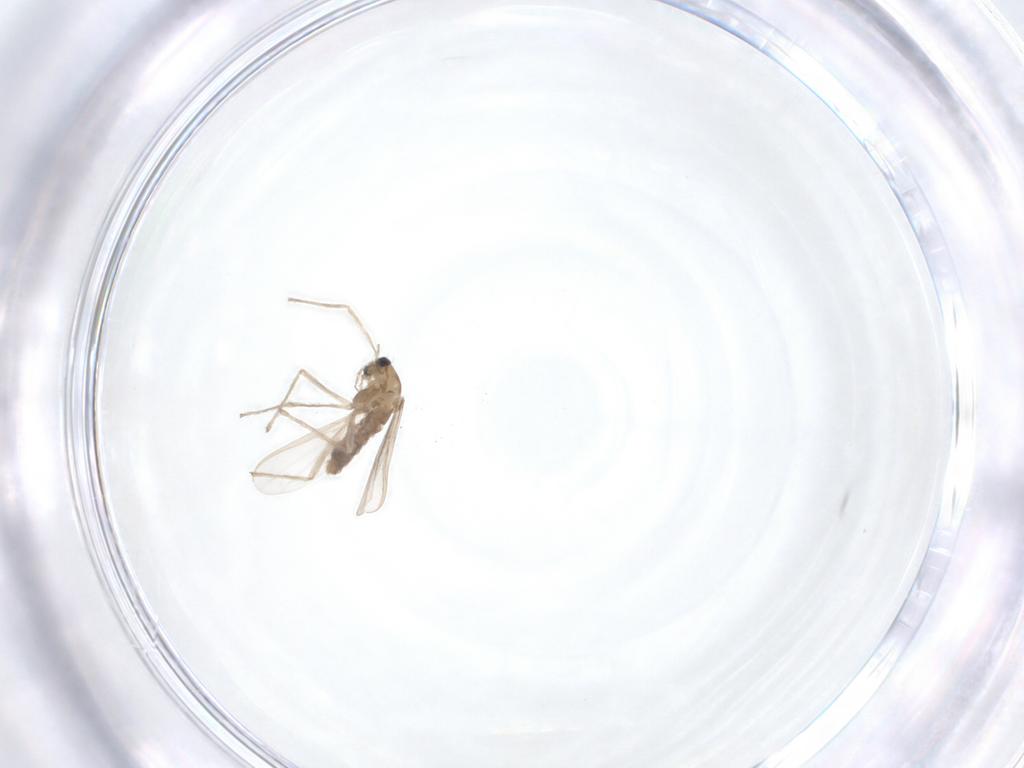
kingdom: Animalia
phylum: Arthropoda
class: Insecta
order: Diptera
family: Chironomidae
